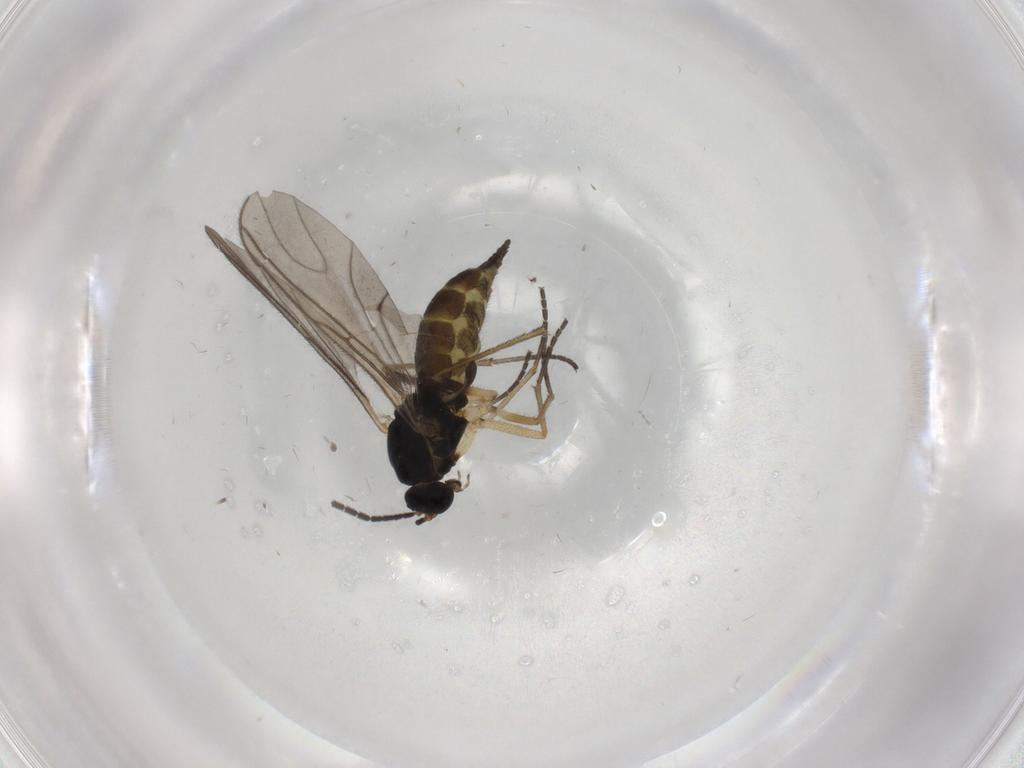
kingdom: Animalia
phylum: Arthropoda
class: Insecta
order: Diptera
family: Sciaridae
